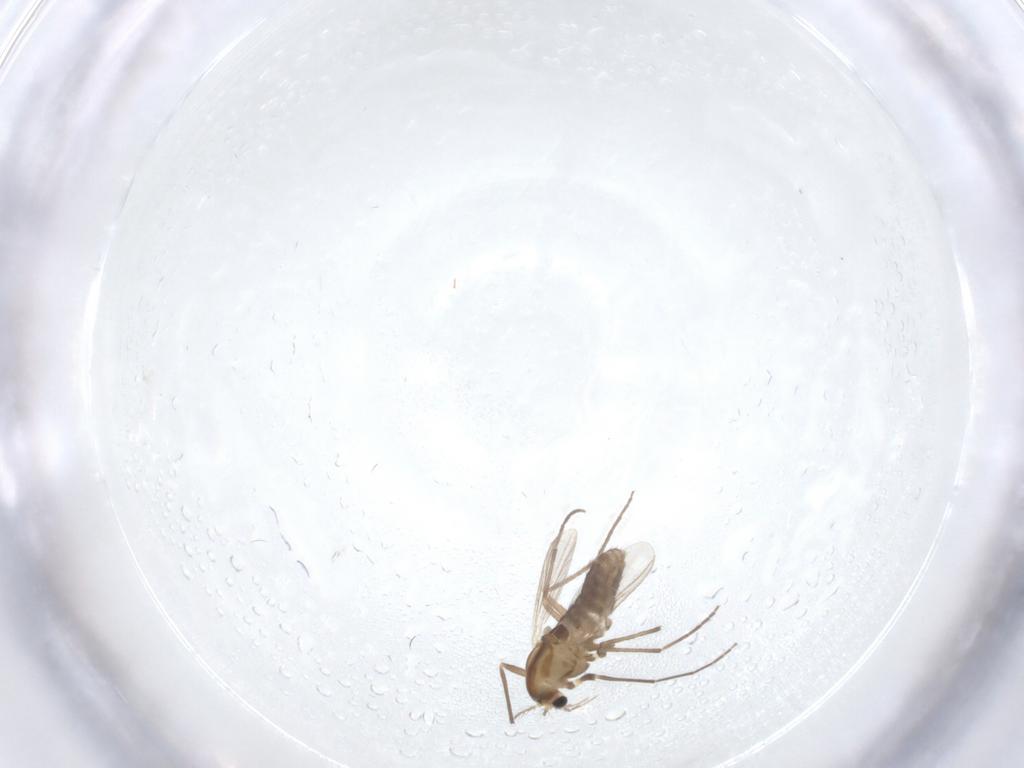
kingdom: Animalia
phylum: Arthropoda
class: Insecta
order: Diptera
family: Chironomidae
